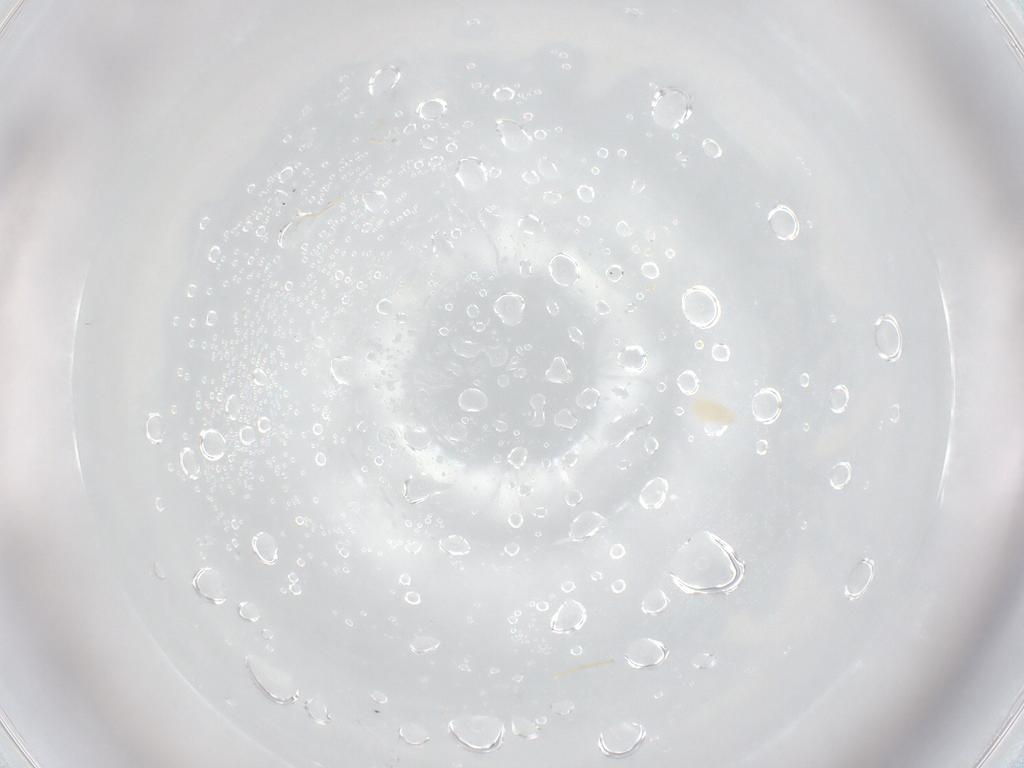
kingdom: Animalia
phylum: Arthropoda
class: Arachnida
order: Trombidiformes
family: Eupodidae
